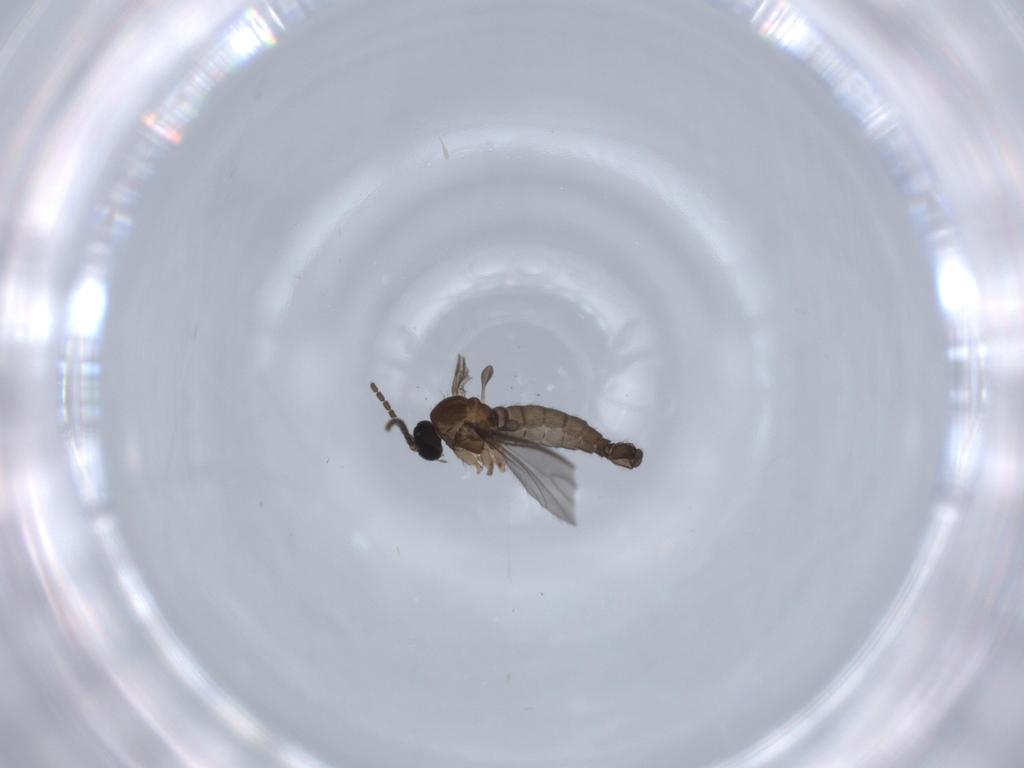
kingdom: Animalia
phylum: Arthropoda
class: Insecta
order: Diptera
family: Sciaridae
